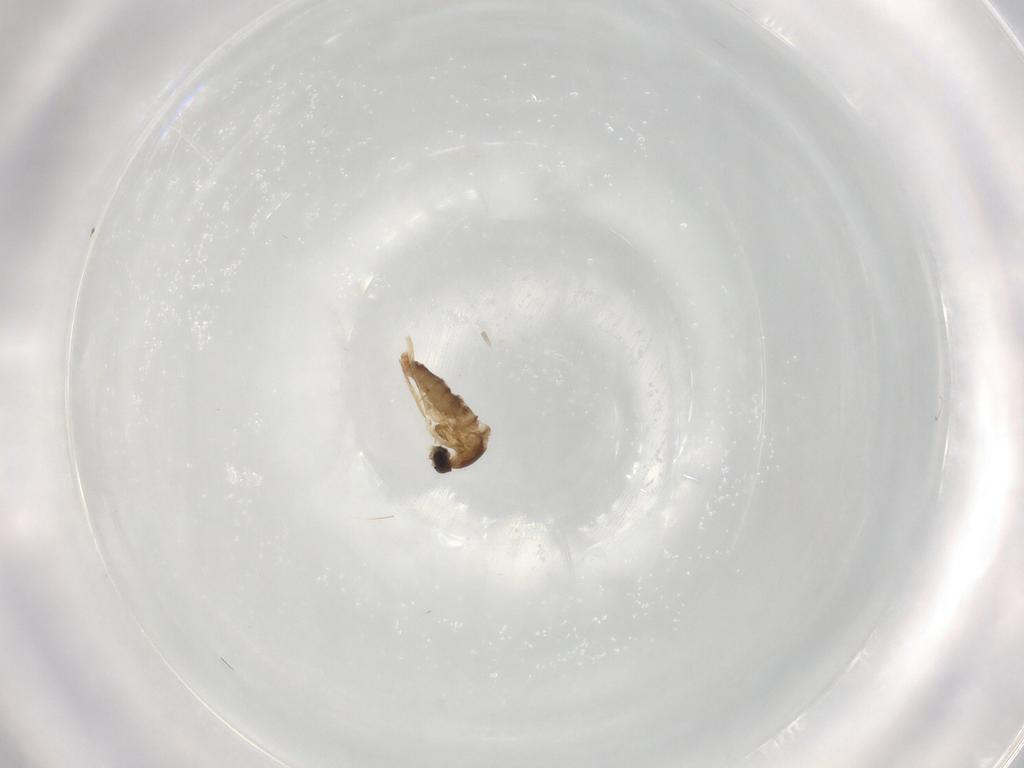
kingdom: Animalia
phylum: Arthropoda
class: Insecta
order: Diptera
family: Cecidomyiidae
